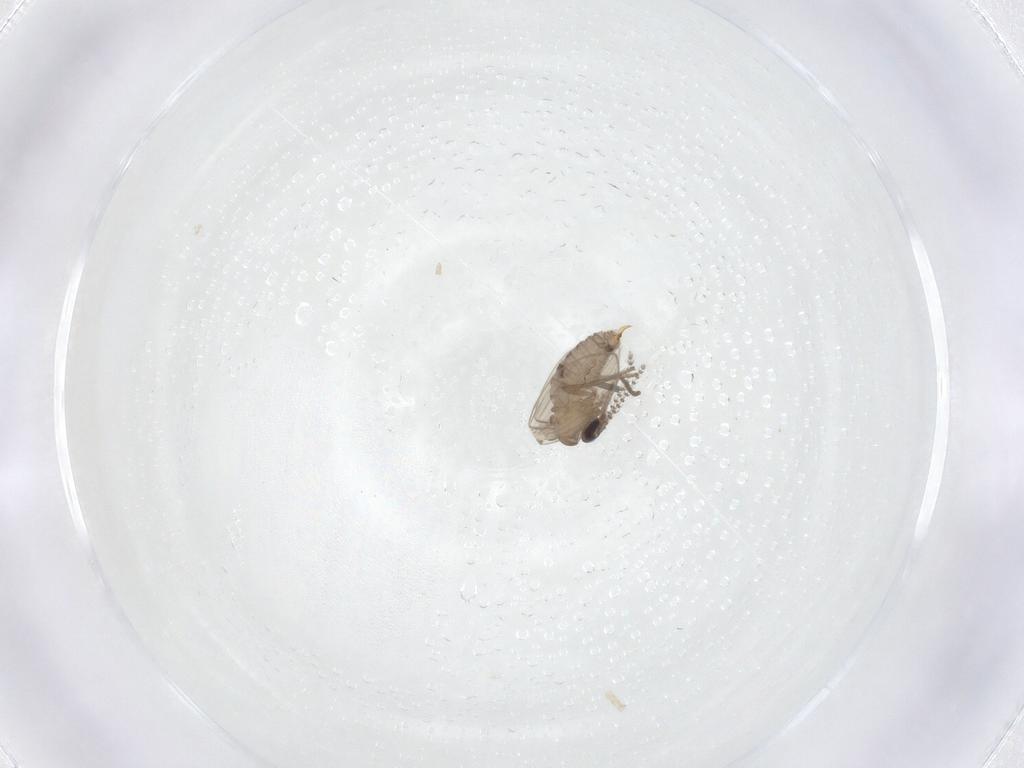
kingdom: Animalia
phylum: Arthropoda
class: Insecta
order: Diptera
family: Psychodidae
